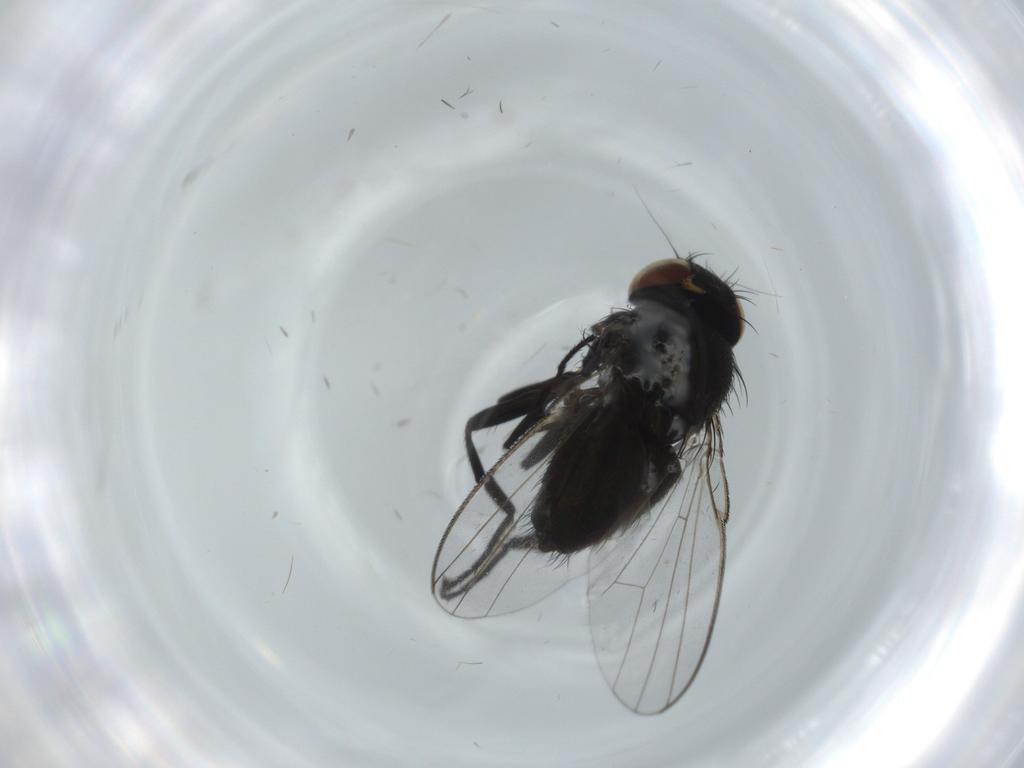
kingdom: Animalia
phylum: Arthropoda
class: Insecta
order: Diptera
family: Milichiidae
